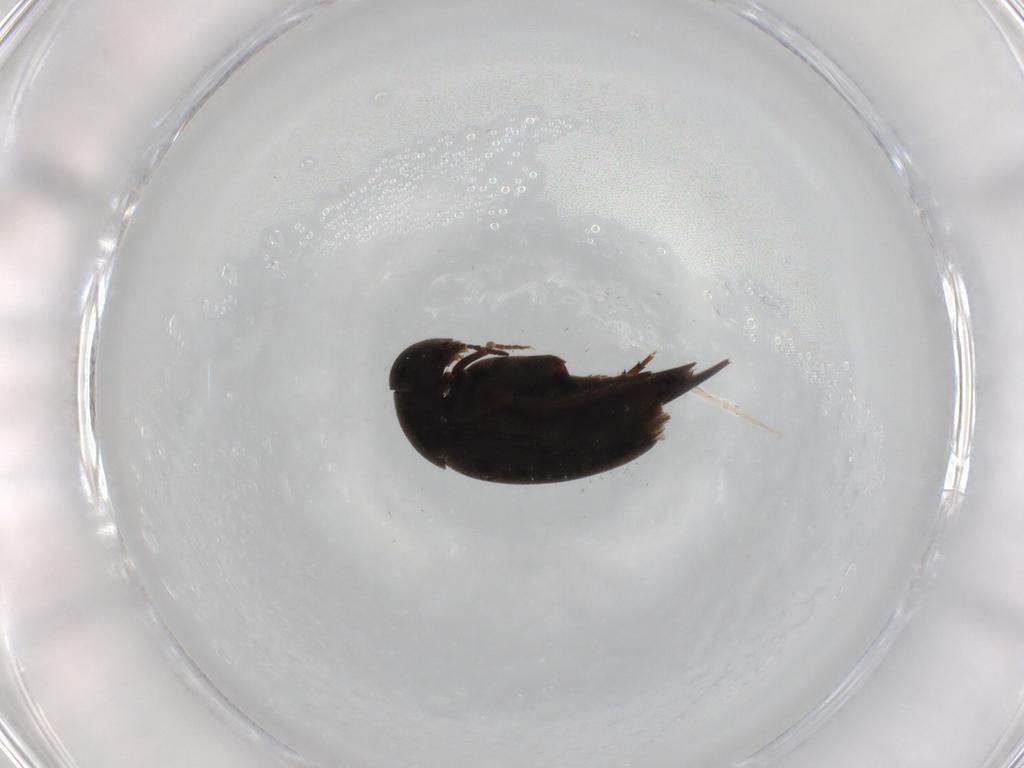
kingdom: Animalia
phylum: Arthropoda
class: Insecta
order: Coleoptera
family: Mordellidae
